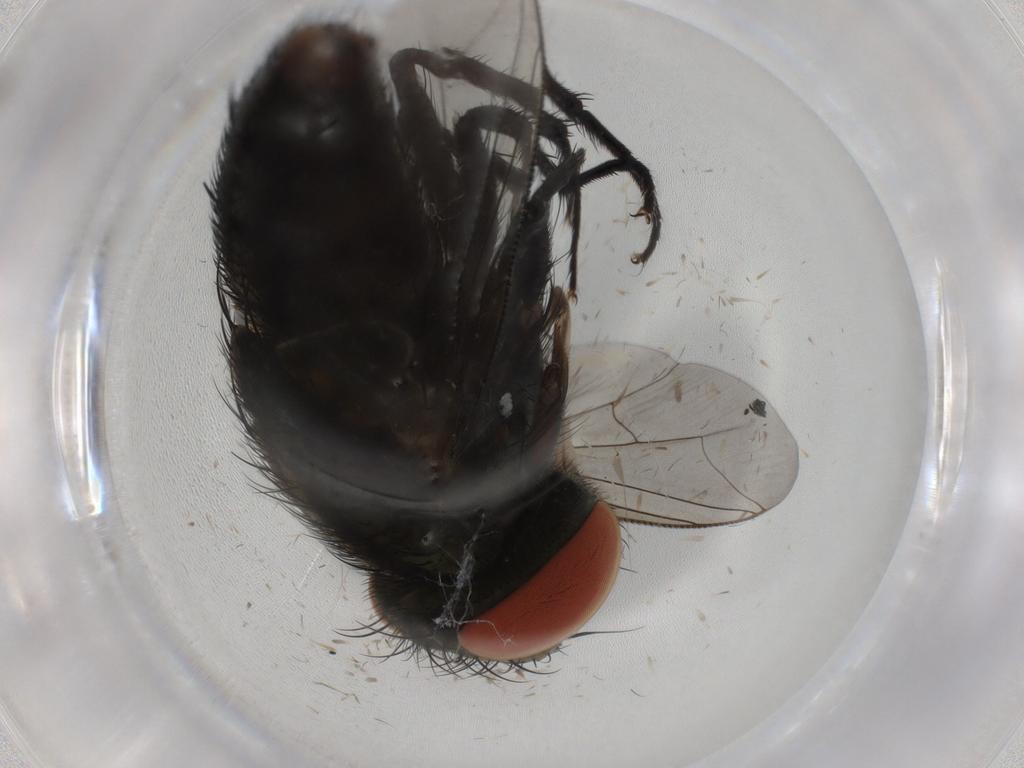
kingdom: Animalia
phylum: Arthropoda
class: Insecta
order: Diptera
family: Sarcophagidae
